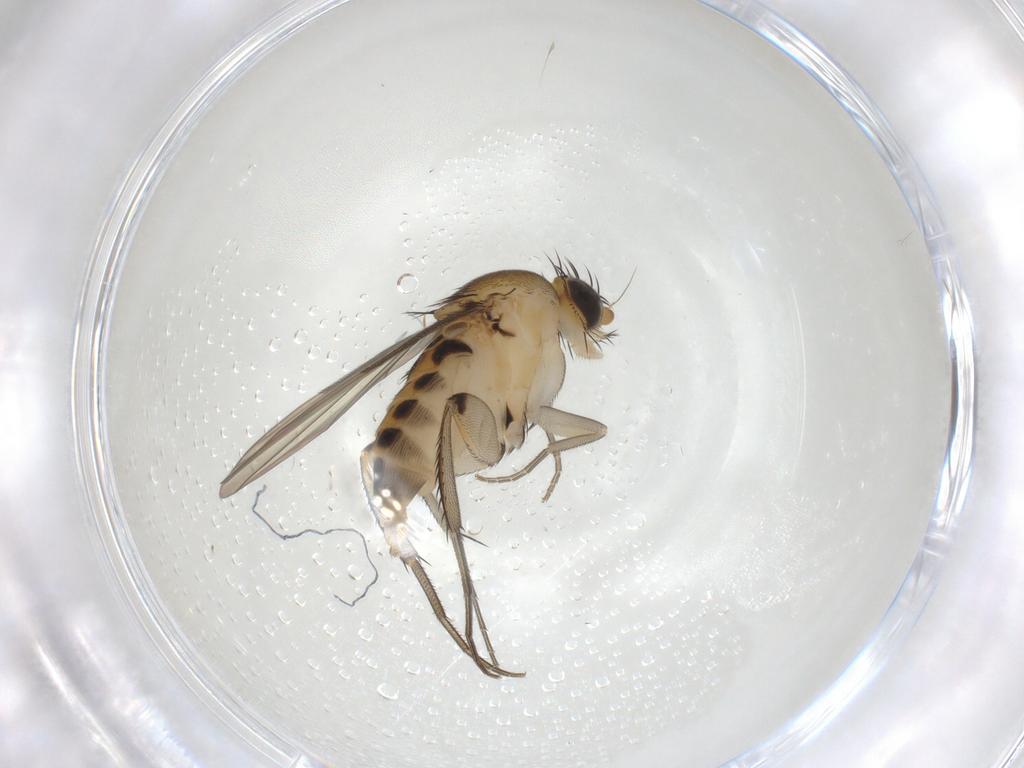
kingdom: Animalia
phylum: Arthropoda
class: Insecta
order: Diptera
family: Phoridae
